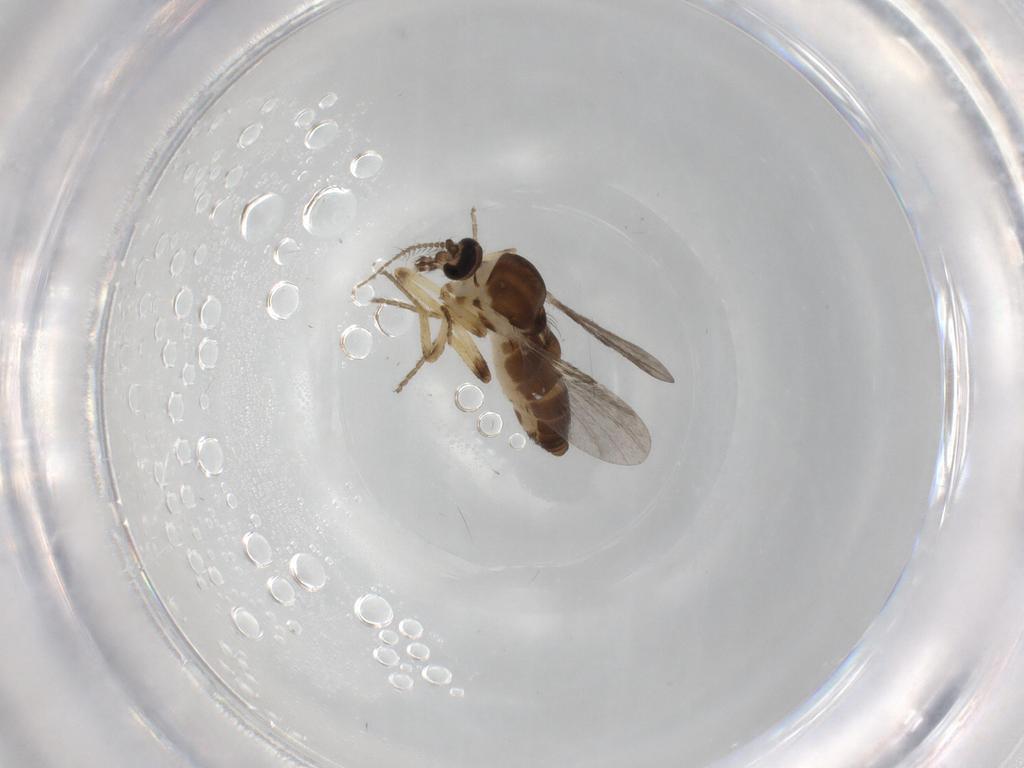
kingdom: Animalia
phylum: Arthropoda
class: Insecta
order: Diptera
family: Ceratopogonidae
